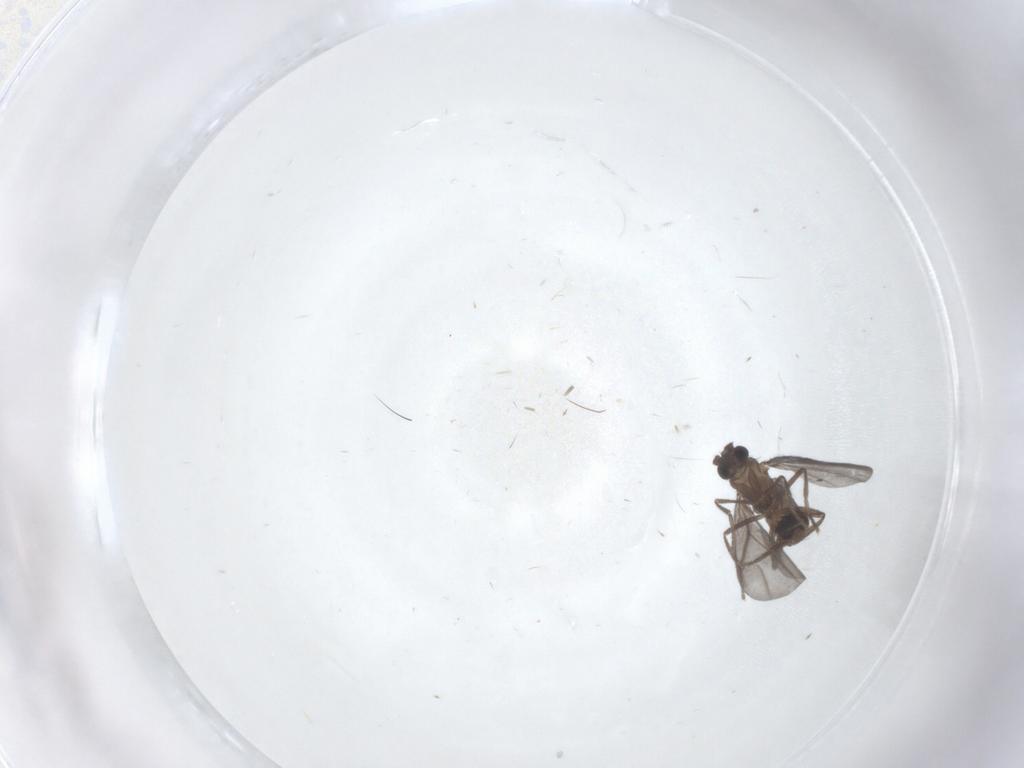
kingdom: Animalia
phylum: Arthropoda
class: Insecta
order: Diptera
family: Phoridae
